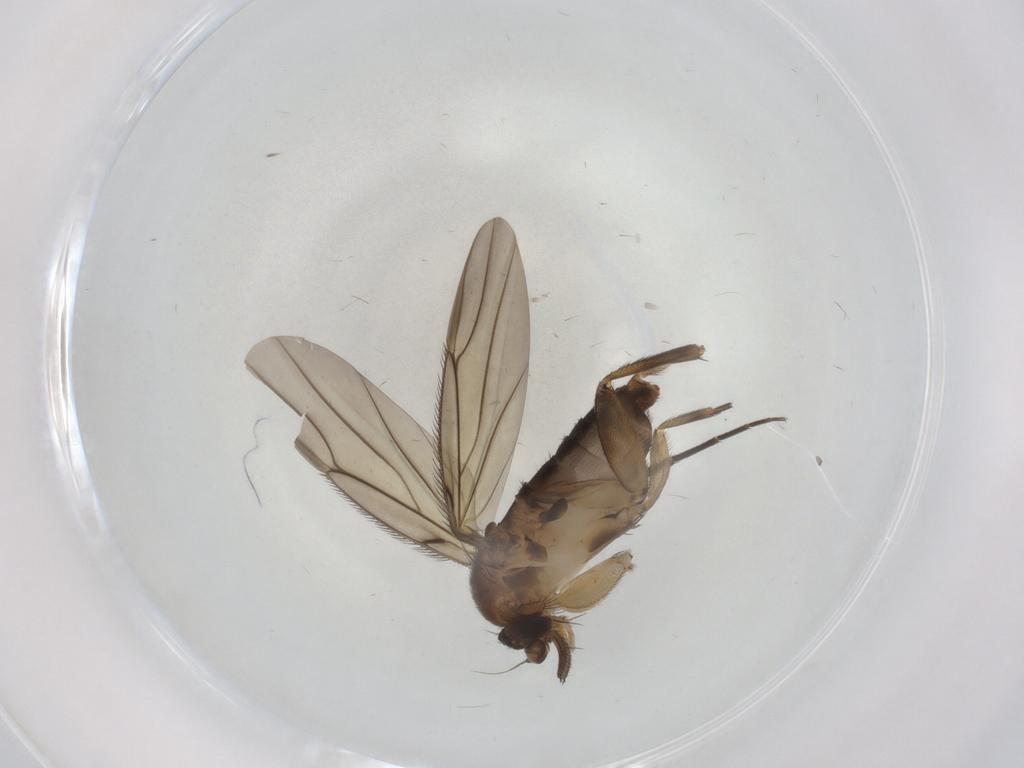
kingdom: Animalia
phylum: Arthropoda
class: Insecta
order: Diptera
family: Phoridae
